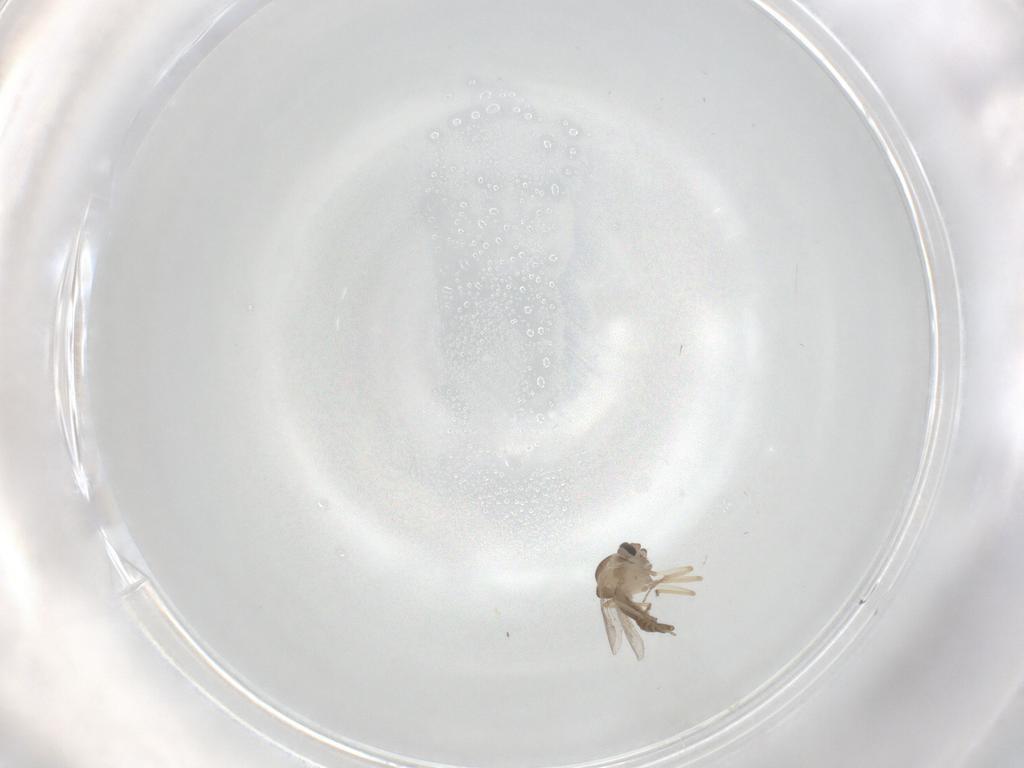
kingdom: Animalia
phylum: Arthropoda
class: Insecta
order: Diptera
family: Ceratopogonidae
